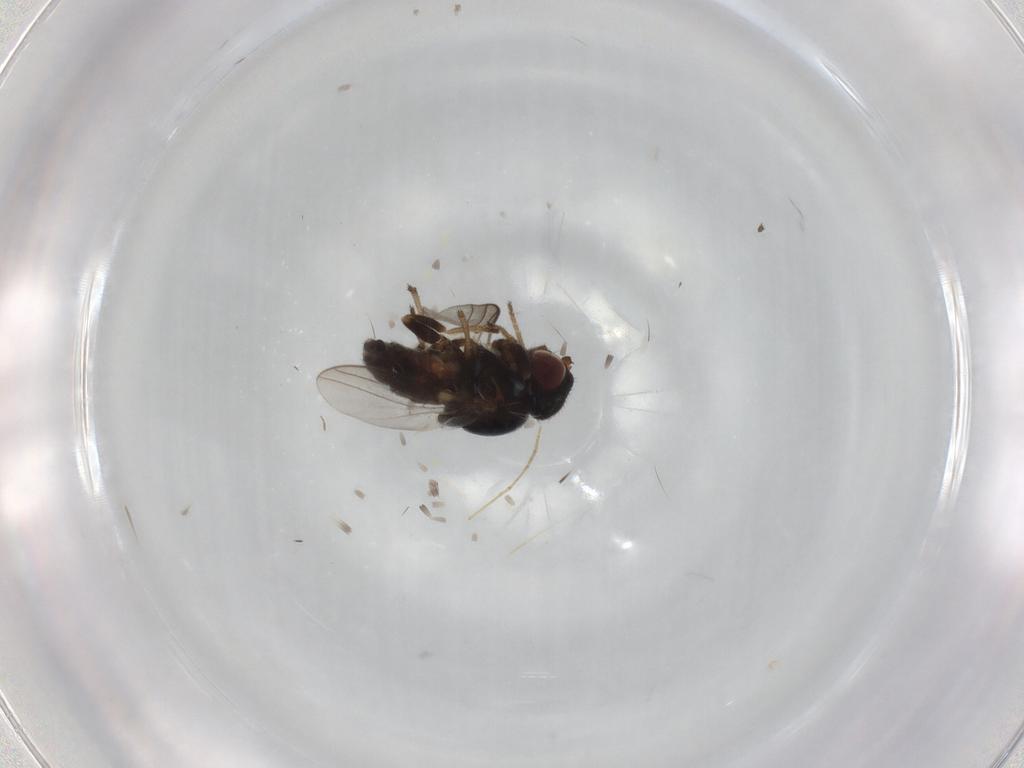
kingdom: Animalia
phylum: Arthropoda
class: Insecta
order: Diptera
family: Chloropidae
